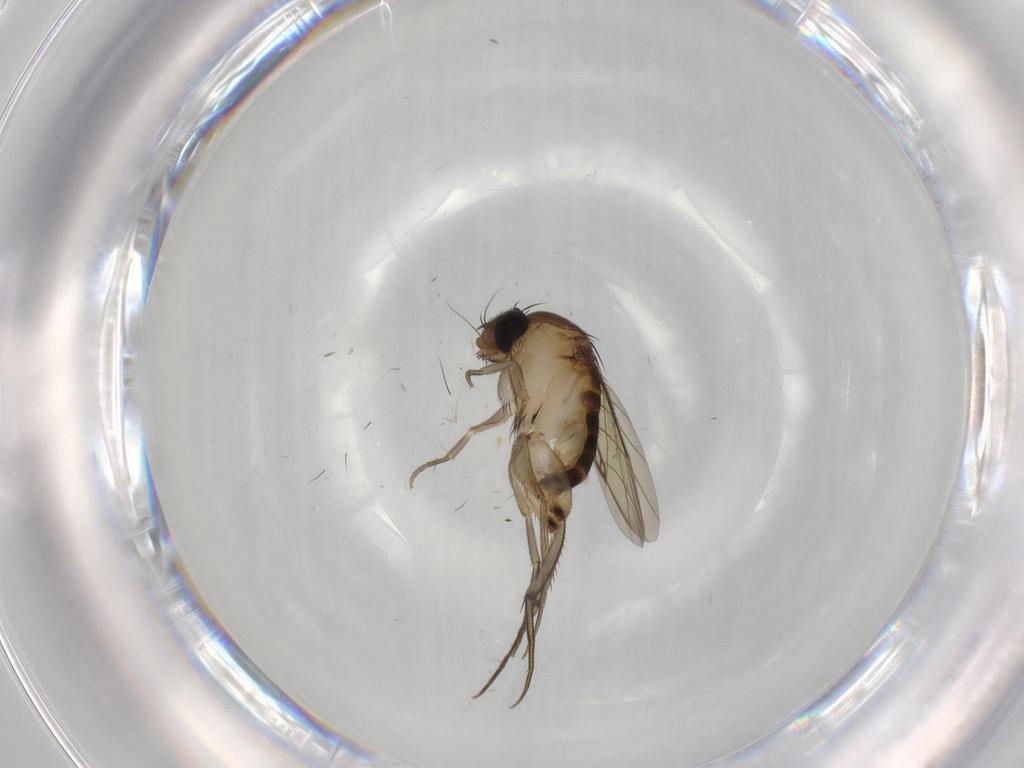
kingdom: Animalia
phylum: Arthropoda
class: Insecta
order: Diptera
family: Phoridae
